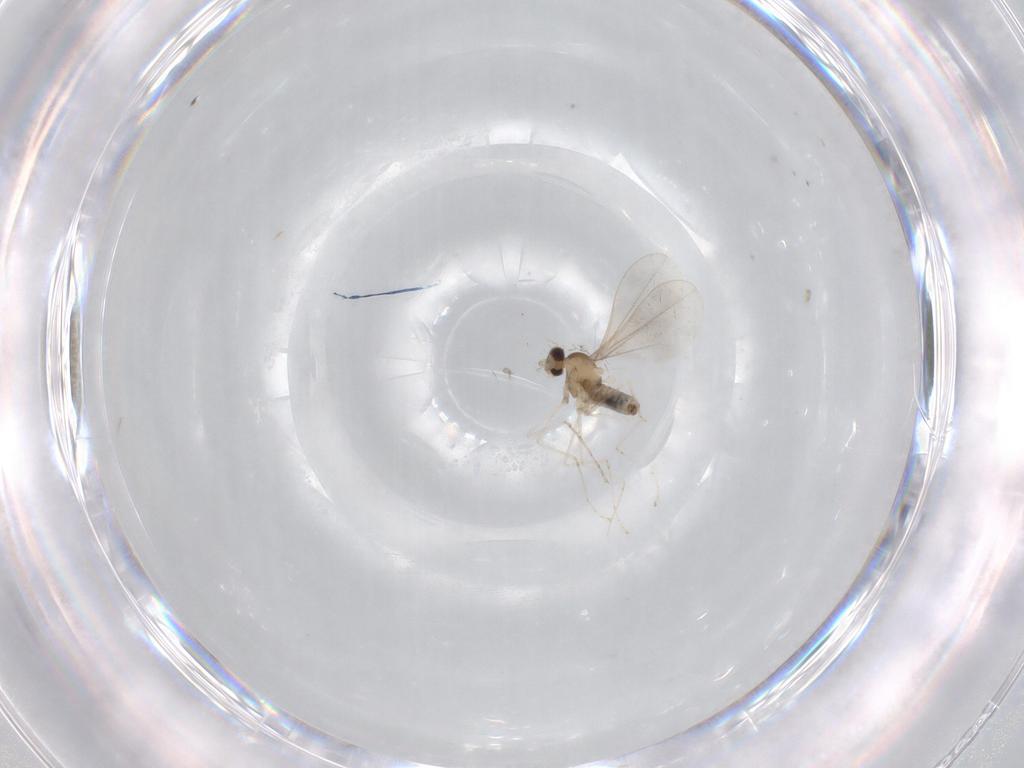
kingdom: Animalia
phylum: Arthropoda
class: Insecta
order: Diptera
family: Cecidomyiidae
